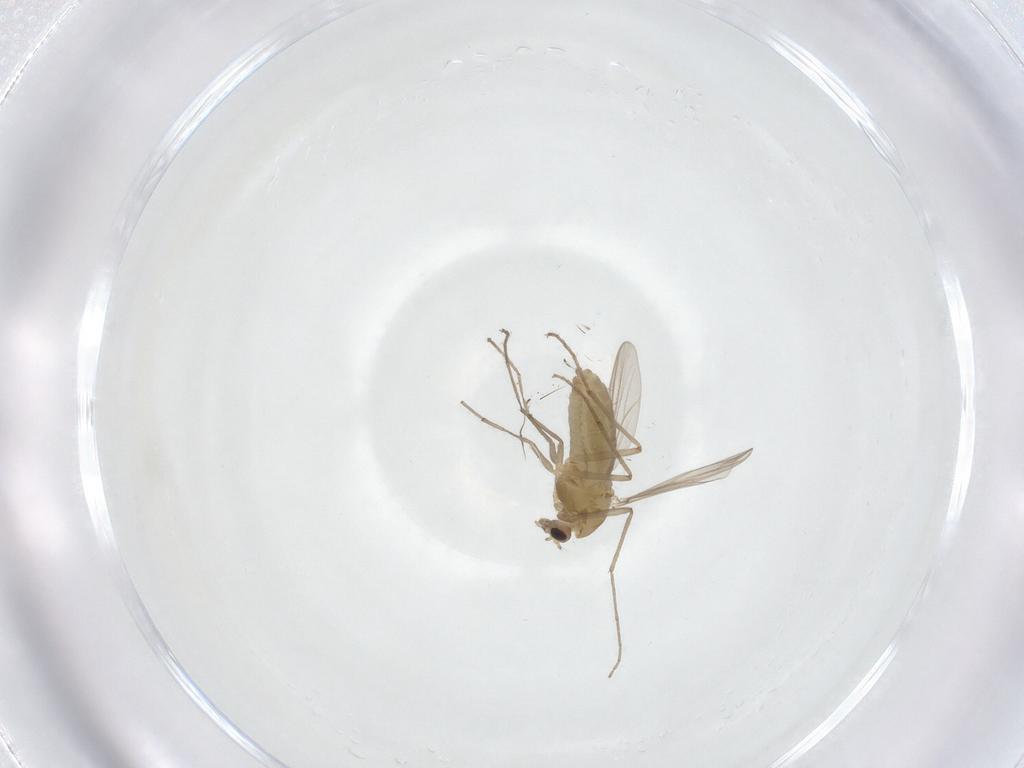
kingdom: Animalia
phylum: Arthropoda
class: Insecta
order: Diptera
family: Chironomidae
